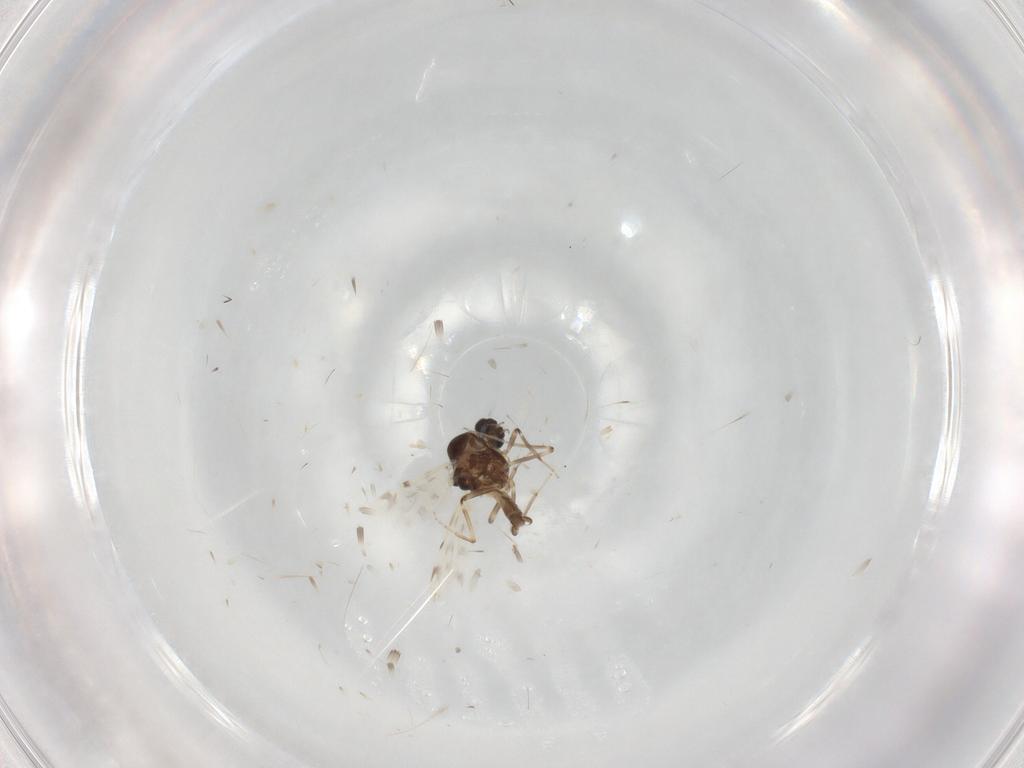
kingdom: Animalia
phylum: Arthropoda
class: Insecta
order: Diptera
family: Ceratopogonidae
